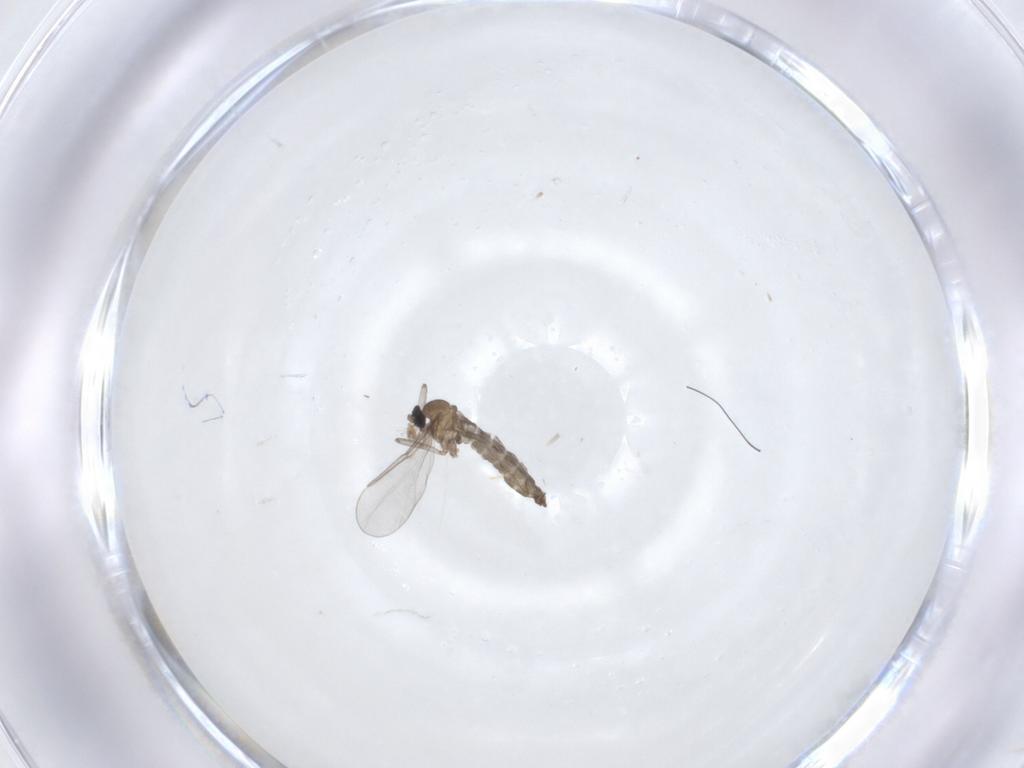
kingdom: Animalia
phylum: Arthropoda
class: Insecta
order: Diptera
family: Cecidomyiidae
